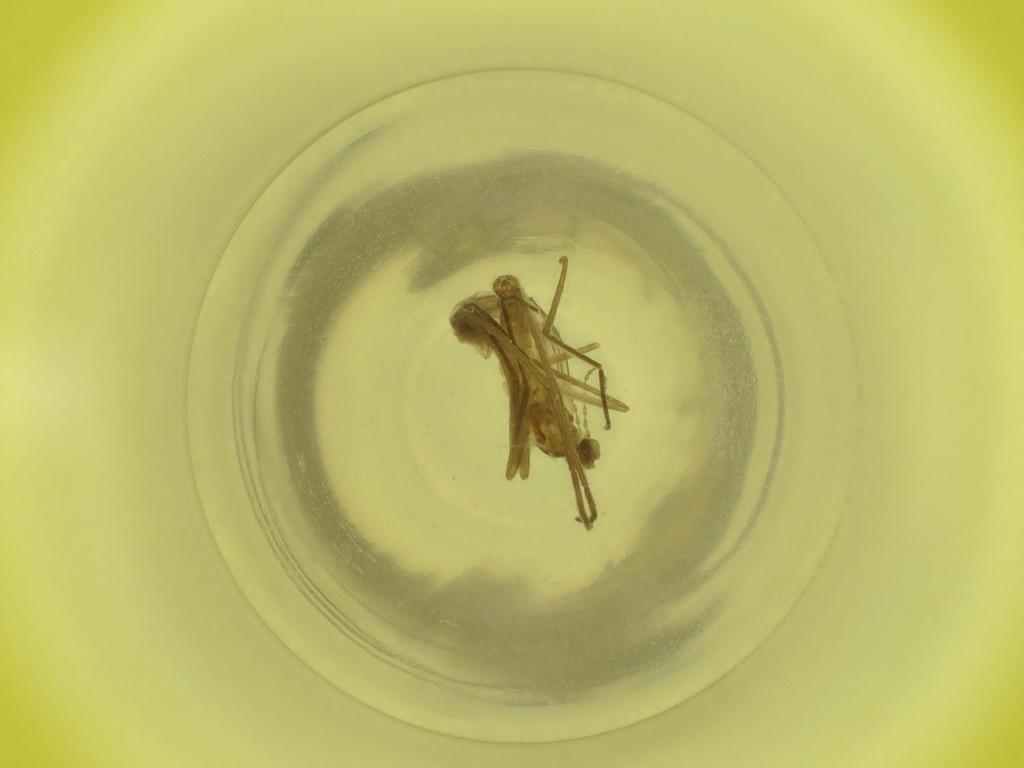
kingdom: Animalia
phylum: Arthropoda
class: Insecta
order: Diptera
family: Cecidomyiidae
